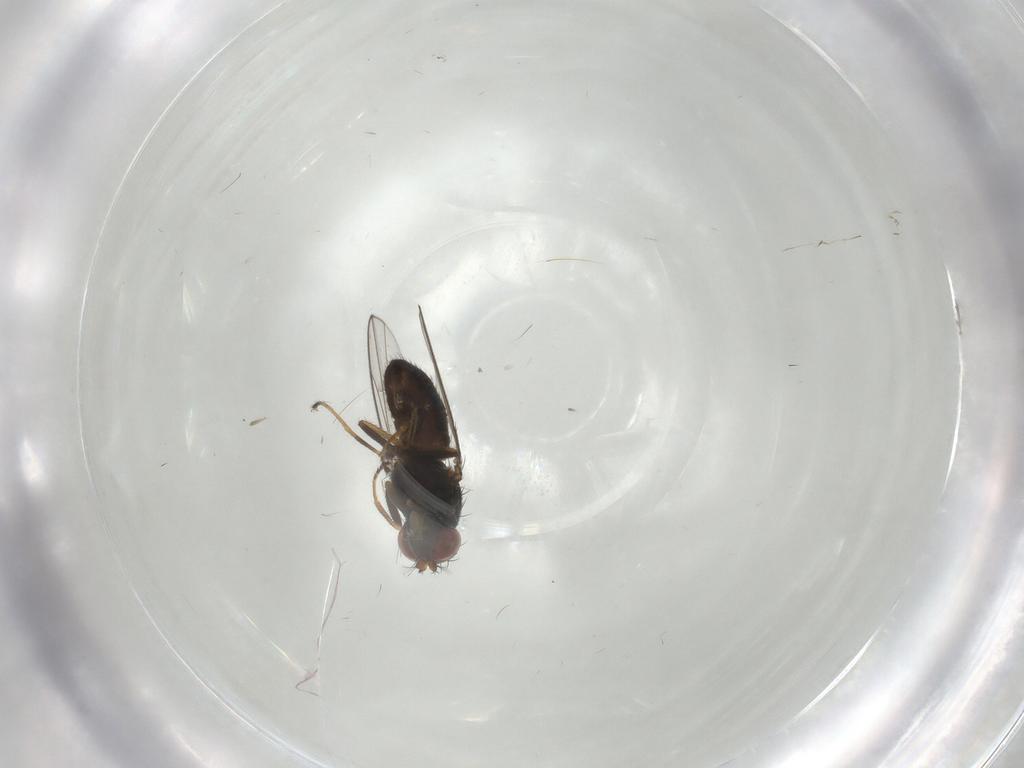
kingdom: Animalia
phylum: Arthropoda
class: Insecta
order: Diptera
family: Ephydridae
